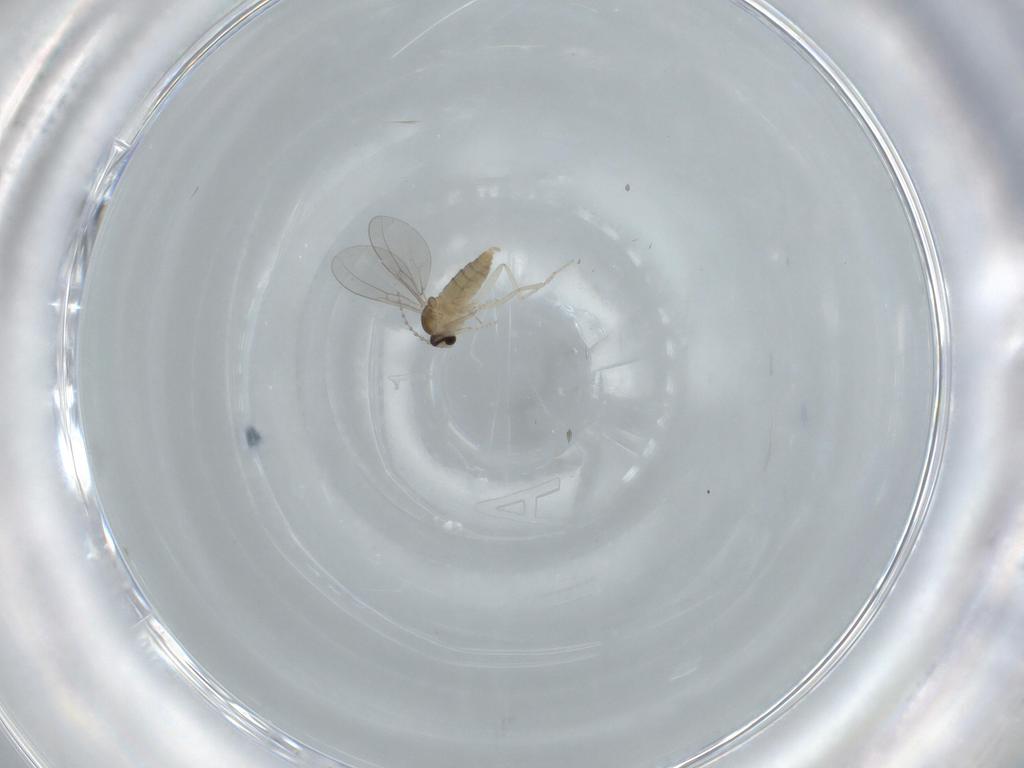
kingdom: Animalia
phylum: Arthropoda
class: Insecta
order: Diptera
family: Cecidomyiidae
